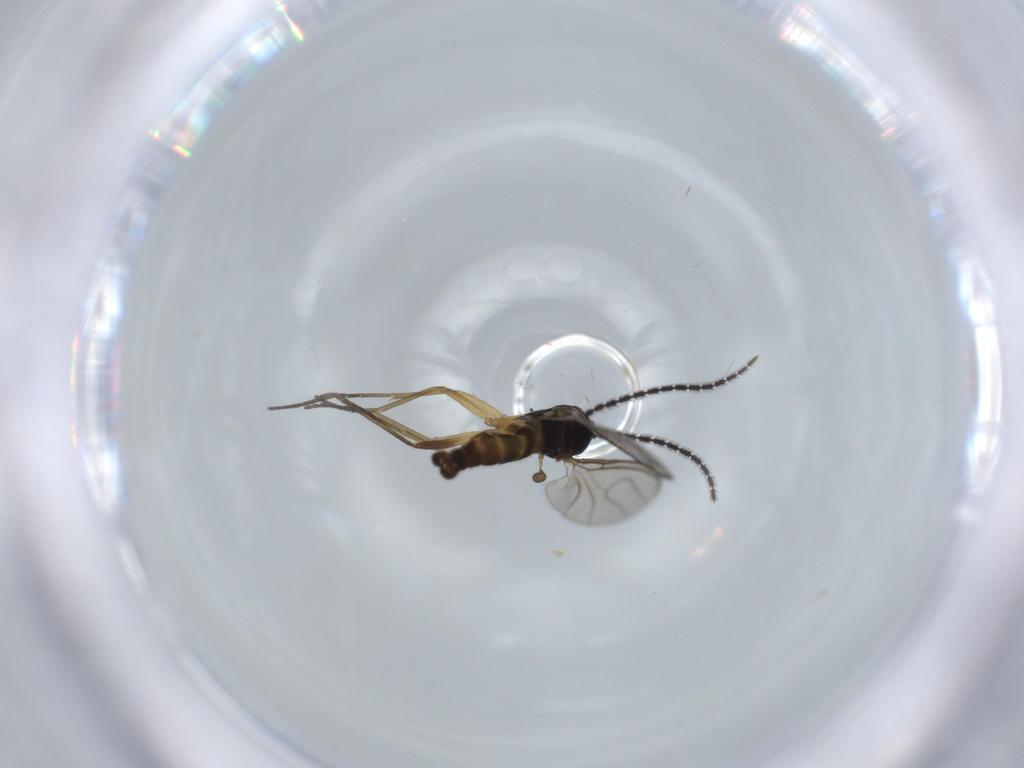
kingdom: Animalia
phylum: Arthropoda
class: Insecta
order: Diptera
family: Sciaridae
